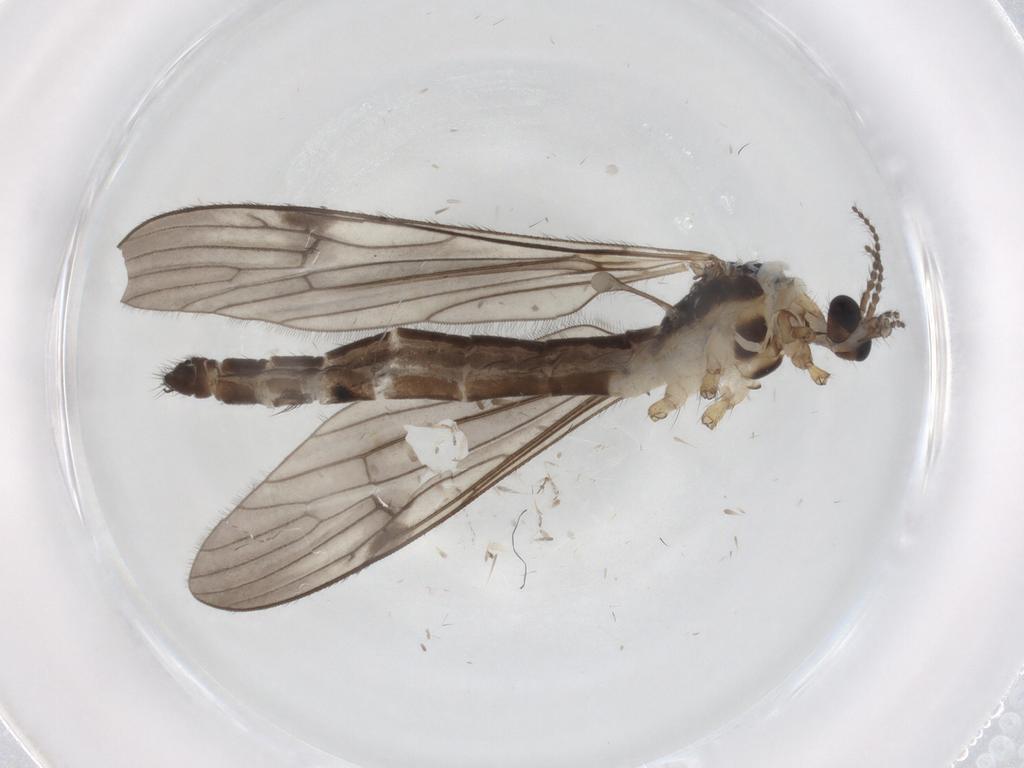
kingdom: Animalia
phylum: Arthropoda
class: Insecta
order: Diptera
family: Limoniidae
